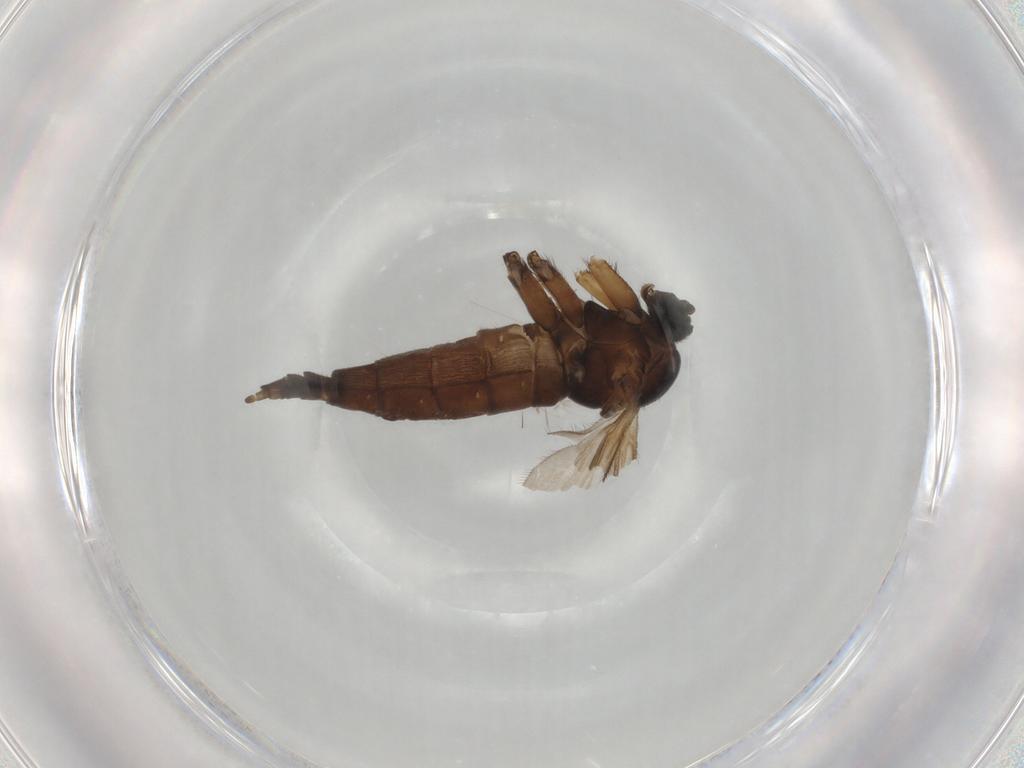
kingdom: Animalia
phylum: Arthropoda
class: Insecta
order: Diptera
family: Sciaridae
